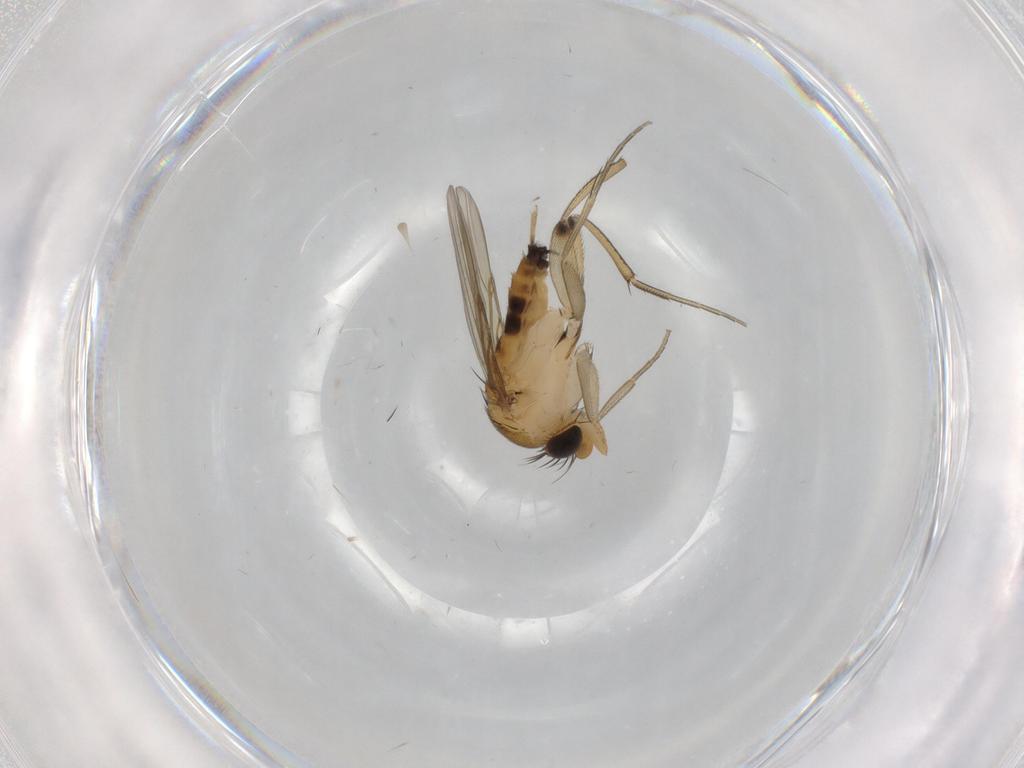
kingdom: Animalia
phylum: Arthropoda
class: Insecta
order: Diptera
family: Phoridae
